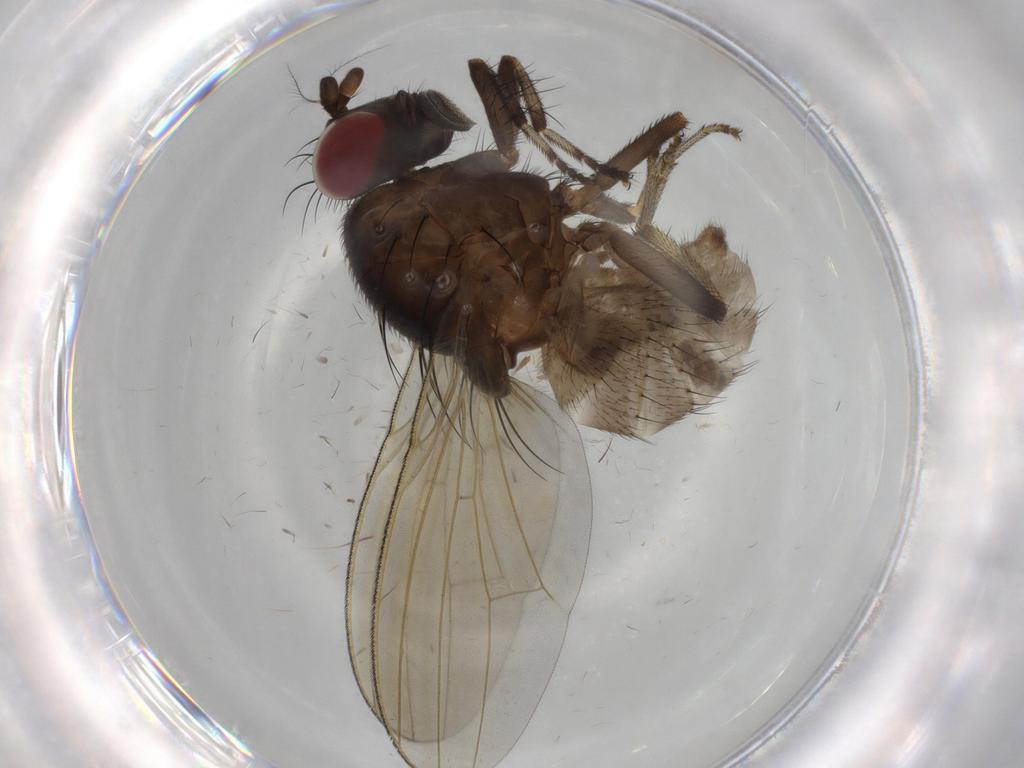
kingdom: Animalia
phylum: Arthropoda
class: Insecta
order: Diptera
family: Cecidomyiidae
